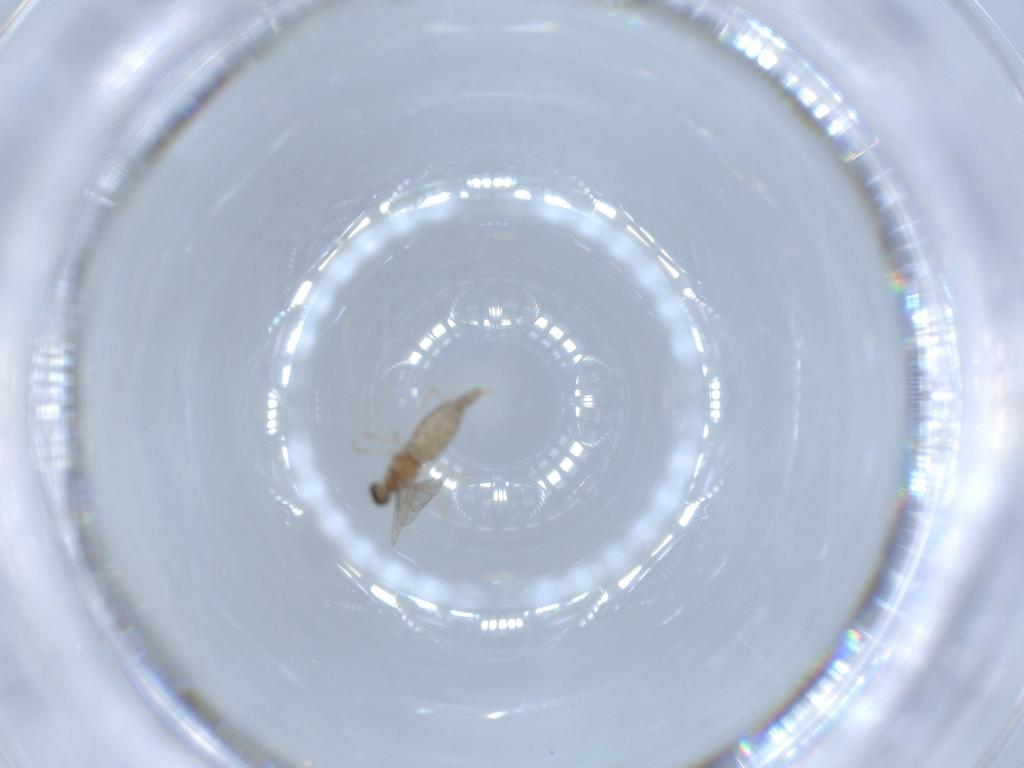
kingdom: Animalia
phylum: Arthropoda
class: Insecta
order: Diptera
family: Cecidomyiidae
